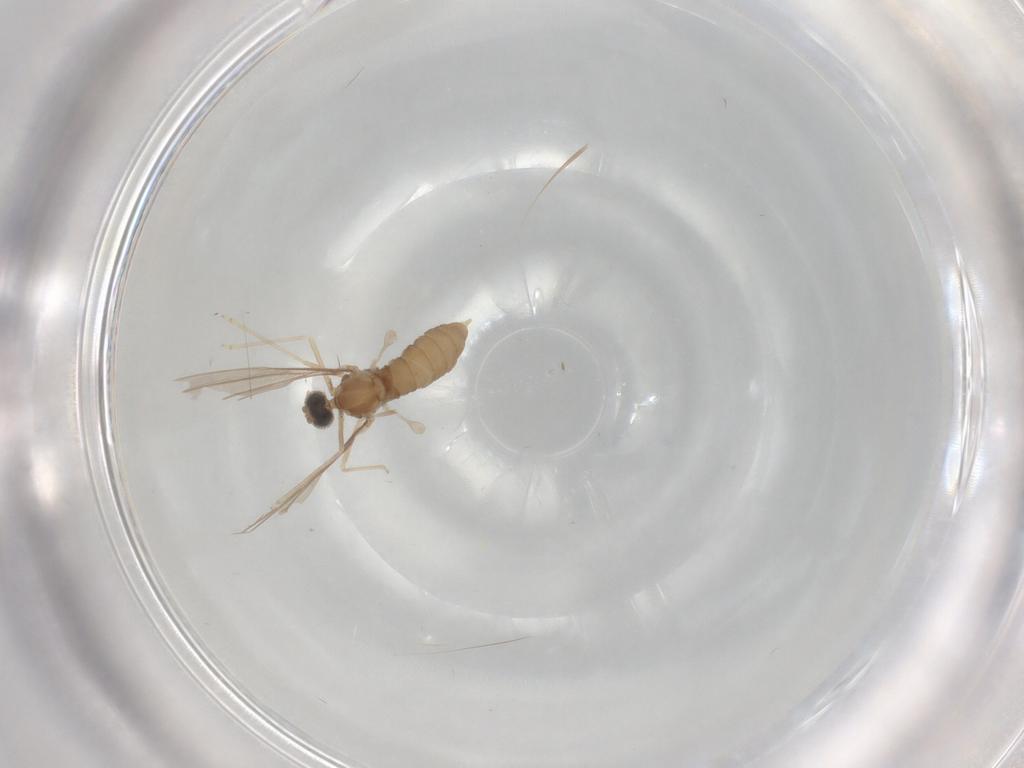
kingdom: Animalia
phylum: Arthropoda
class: Insecta
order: Diptera
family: Cecidomyiidae
